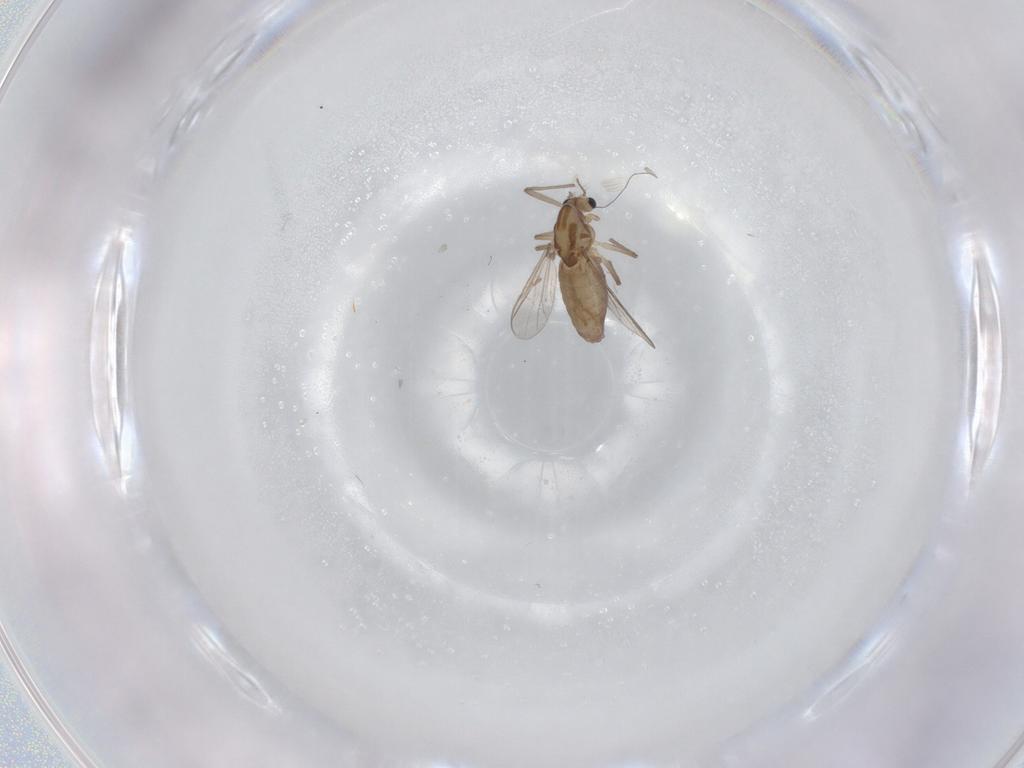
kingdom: Animalia
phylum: Arthropoda
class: Insecta
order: Diptera
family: Chironomidae
